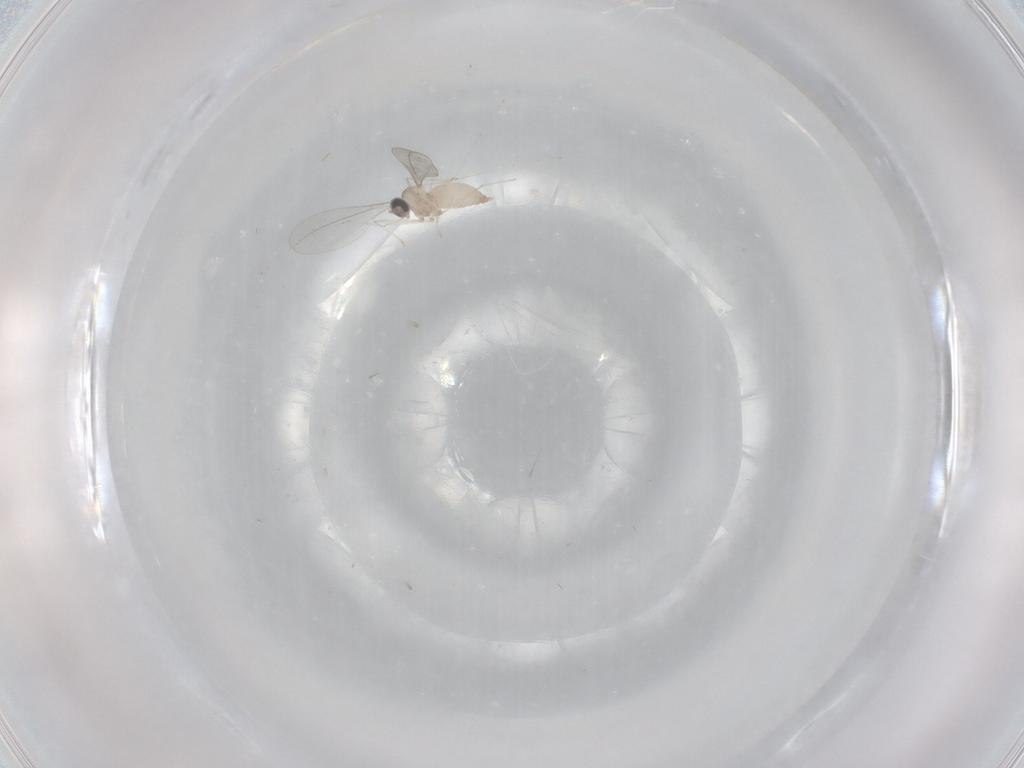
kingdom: Animalia
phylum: Arthropoda
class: Insecta
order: Diptera
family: Cecidomyiidae
